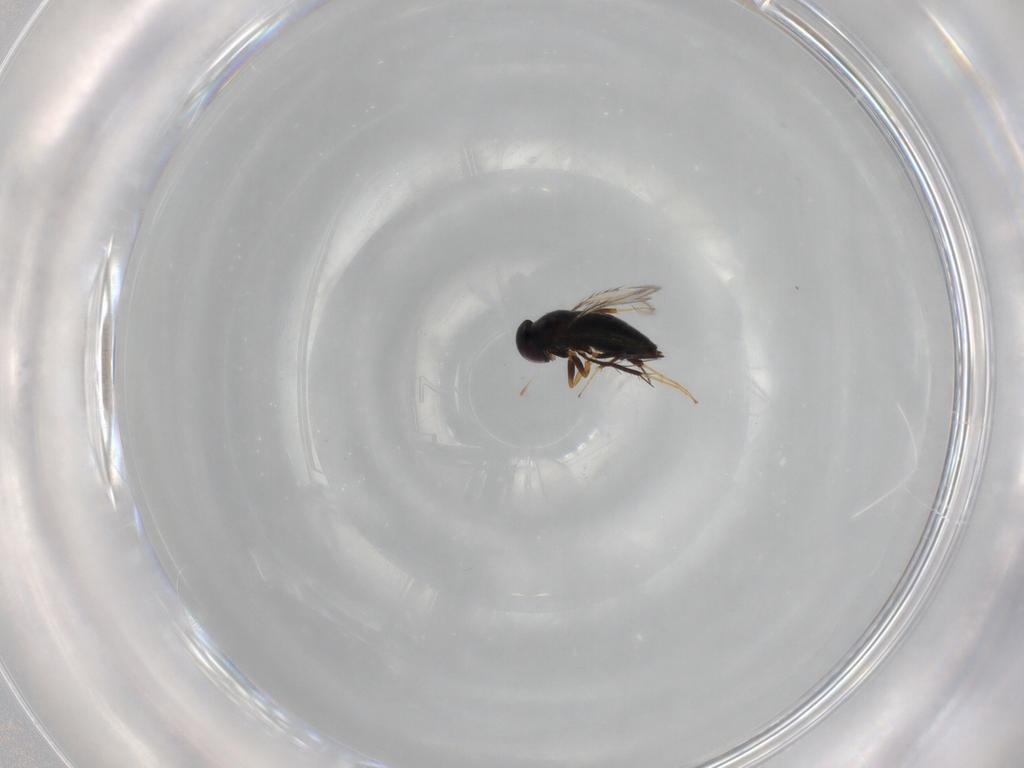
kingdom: Animalia
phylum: Arthropoda
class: Insecta
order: Hymenoptera
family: Signiphoridae
